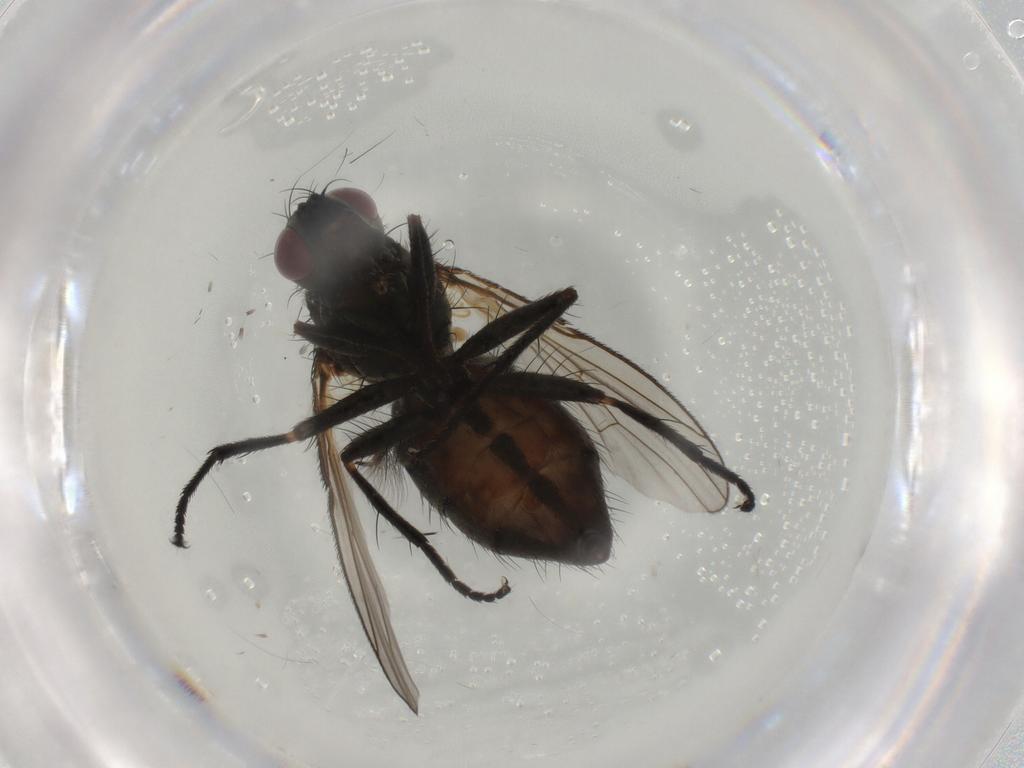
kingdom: Animalia
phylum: Arthropoda
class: Insecta
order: Diptera
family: Muscidae
